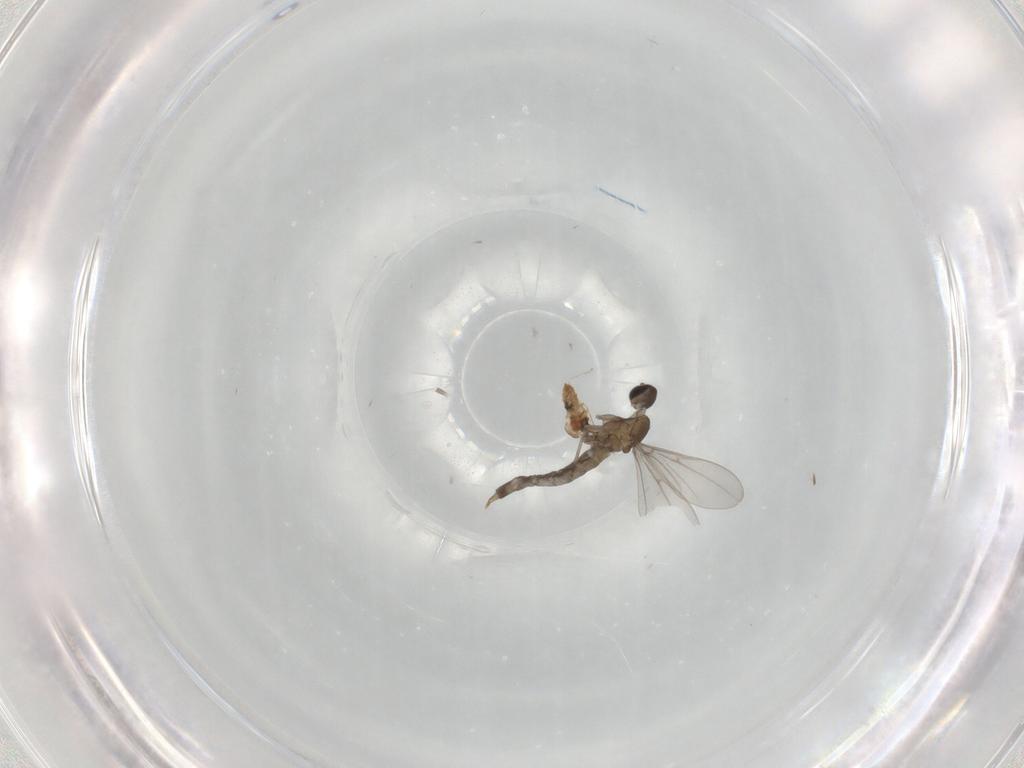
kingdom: Animalia
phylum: Arthropoda
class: Insecta
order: Diptera
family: Cecidomyiidae
